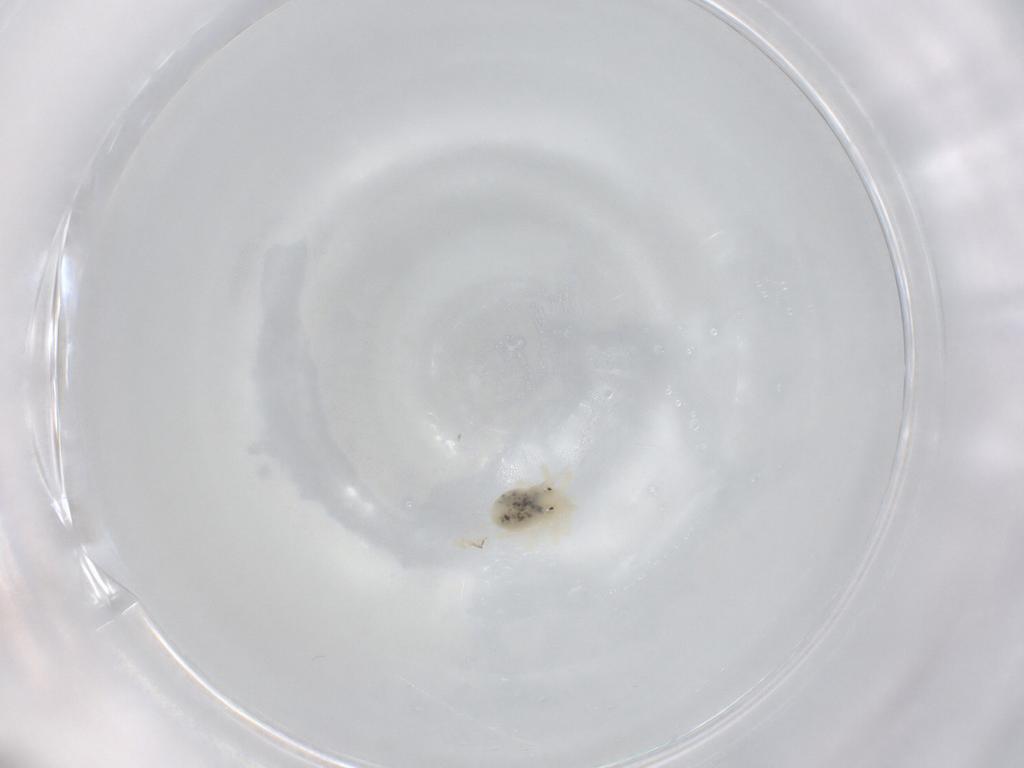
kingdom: Animalia
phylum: Arthropoda
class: Arachnida
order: Trombidiformes
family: Anystidae
